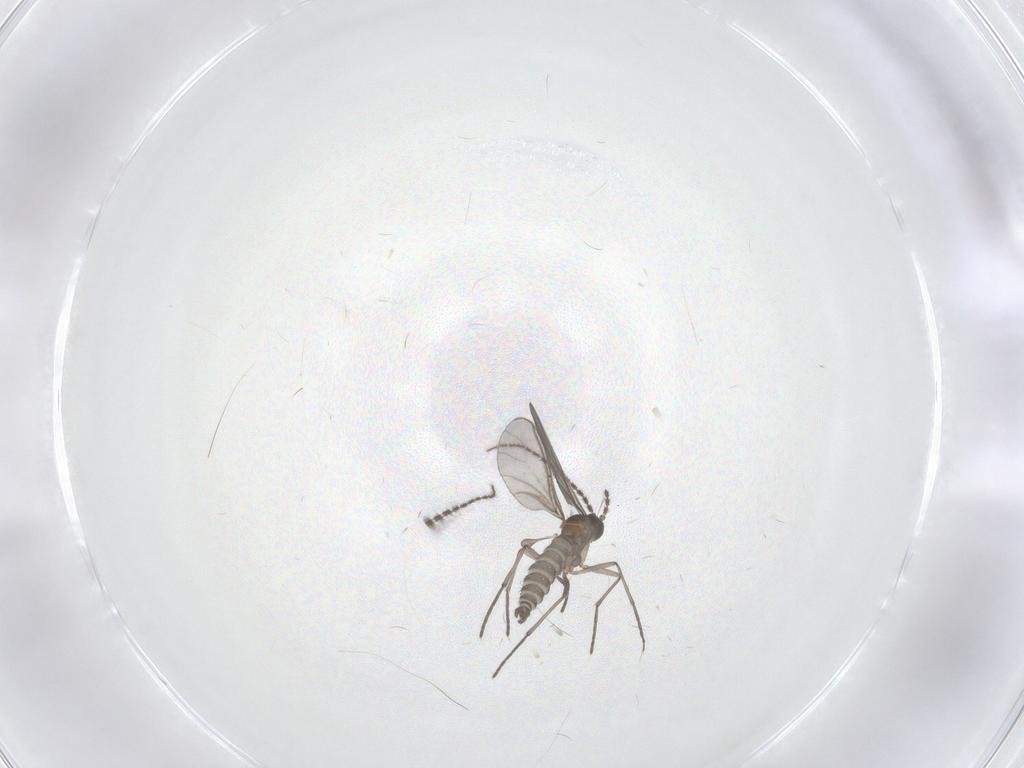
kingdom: Animalia
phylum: Arthropoda
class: Insecta
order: Diptera
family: Sciaridae
